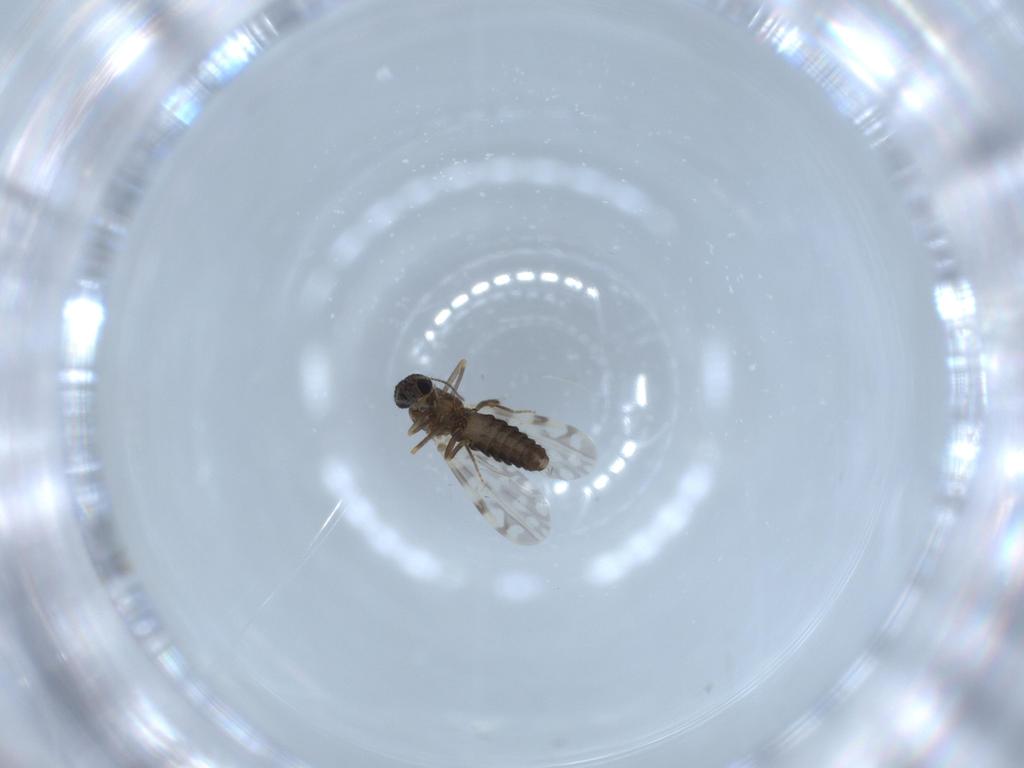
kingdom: Animalia
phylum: Arthropoda
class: Insecta
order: Diptera
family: Ceratopogonidae
